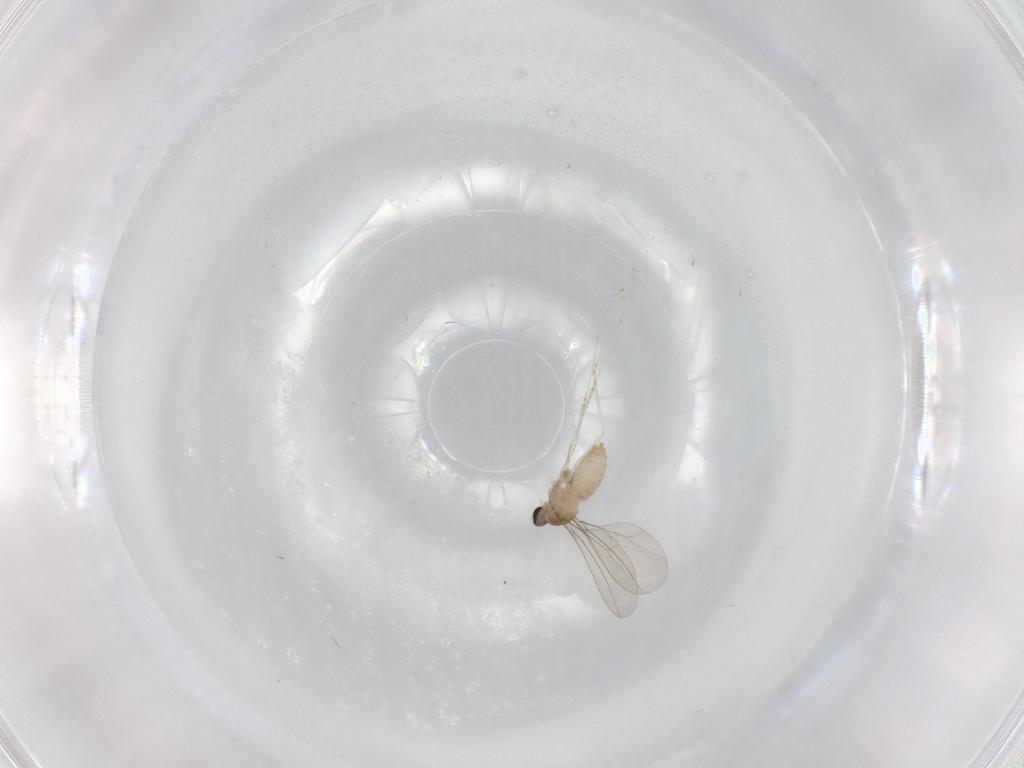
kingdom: Animalia
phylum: Arthropoda
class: Insecta
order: Diptera
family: Cecidomyiidae
